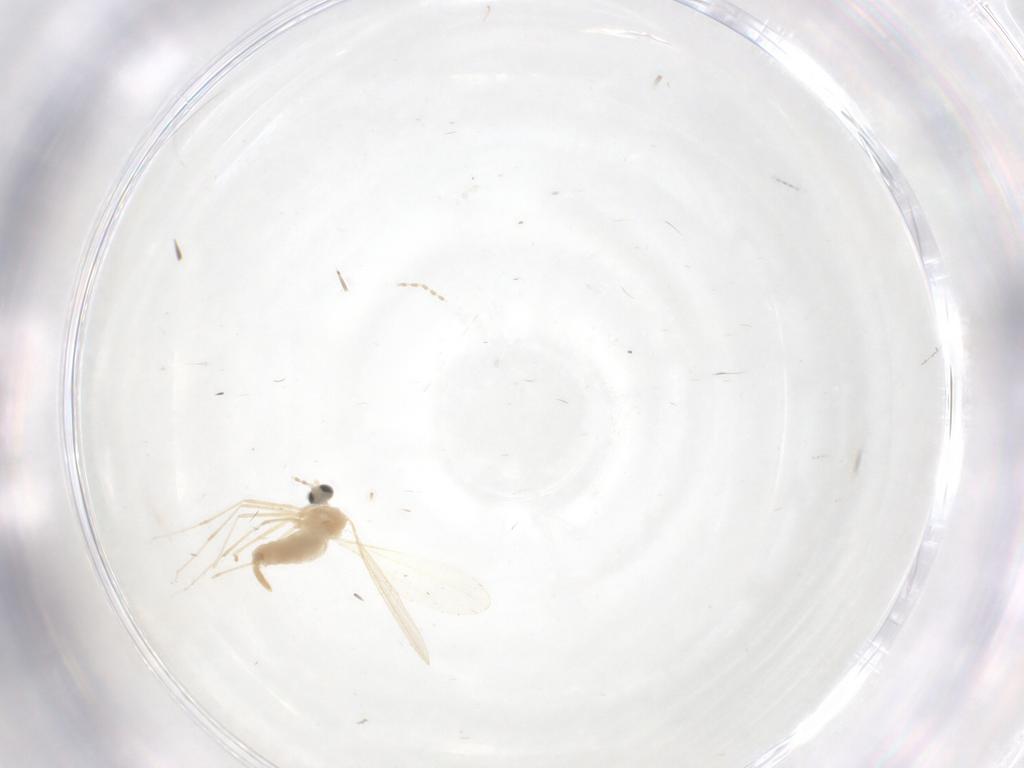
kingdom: Animalia
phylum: Arthropoda
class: Insecta
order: Diptera
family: Cecidomyiidae
